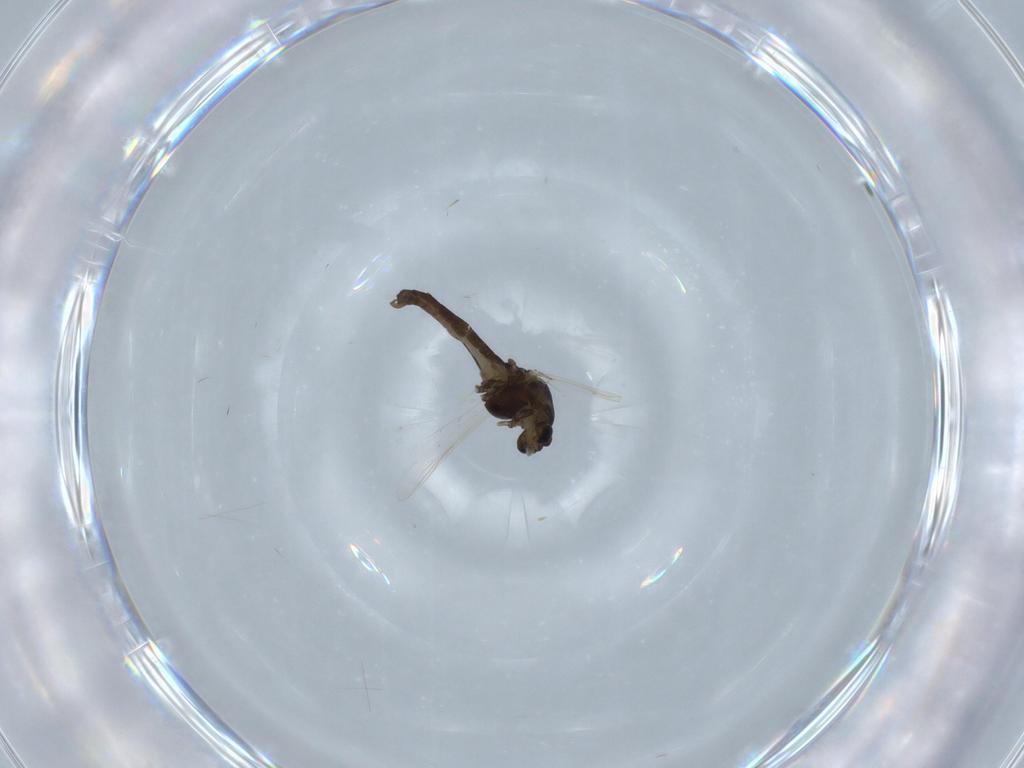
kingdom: Animalia
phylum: Arthropoda
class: Insecta
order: Diptera
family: Chironomidae
